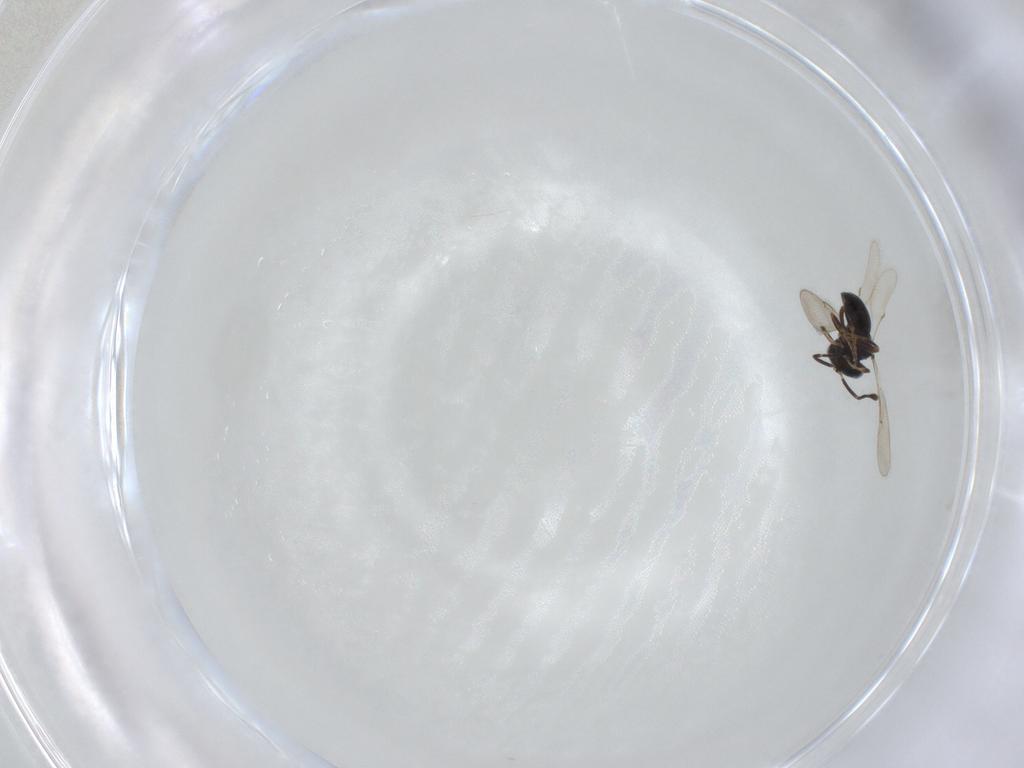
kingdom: Animalia
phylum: Arthropoda
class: Insecta
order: Hymenoptera
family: Scelionidae
